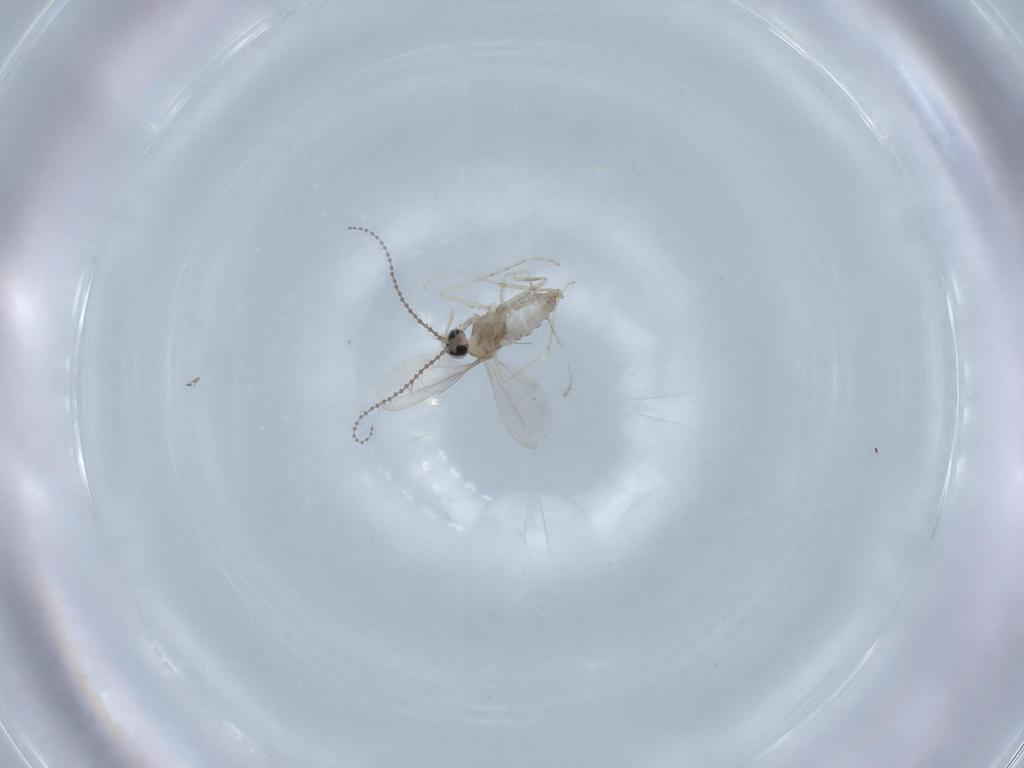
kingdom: Animalia
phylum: Arthropoda
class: Insecta
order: Diptera
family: Dolichopodidae
